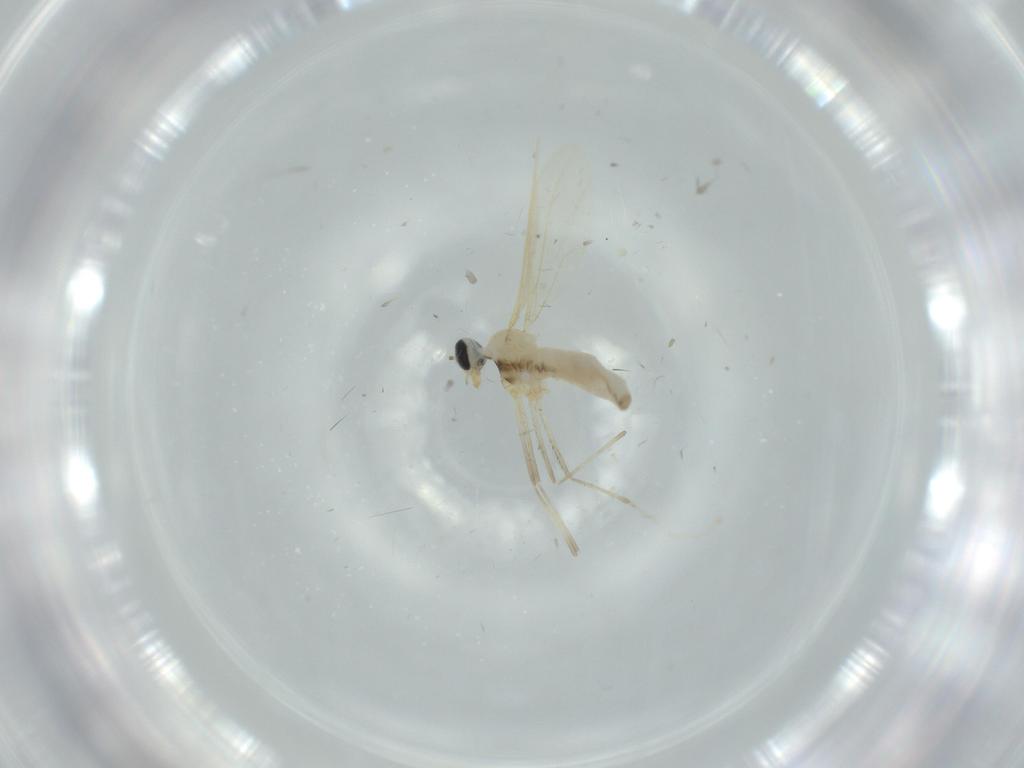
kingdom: Animalia
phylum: Arthropoda
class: Insecta
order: Diptera
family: Cecidomyiidae
